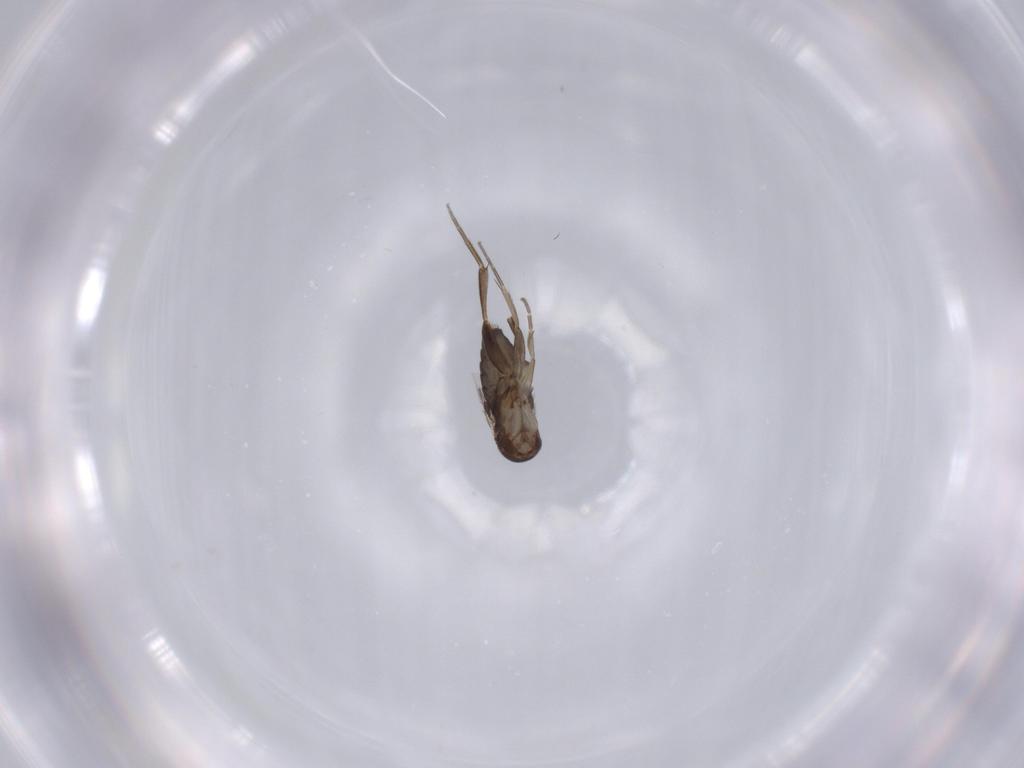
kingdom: Animalia
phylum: Arthropoda
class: Insecta
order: Diptera
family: Phoridae
